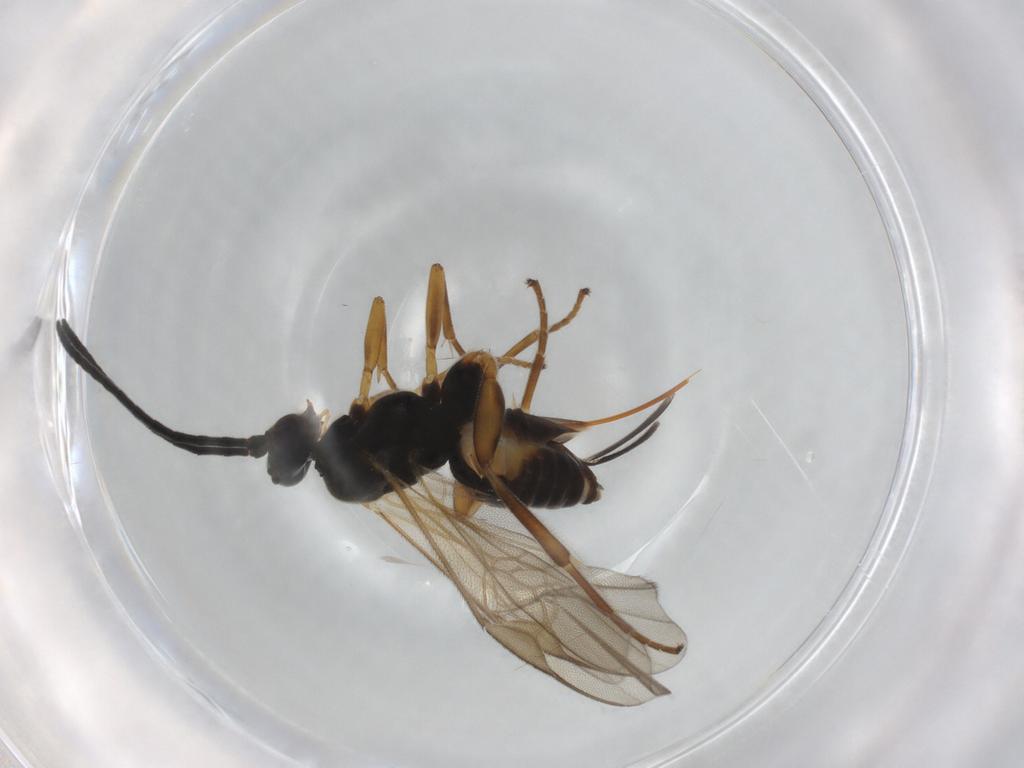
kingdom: Animalia
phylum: Arthropoda
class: Insecta
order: Hymenoptera
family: Braconidae
